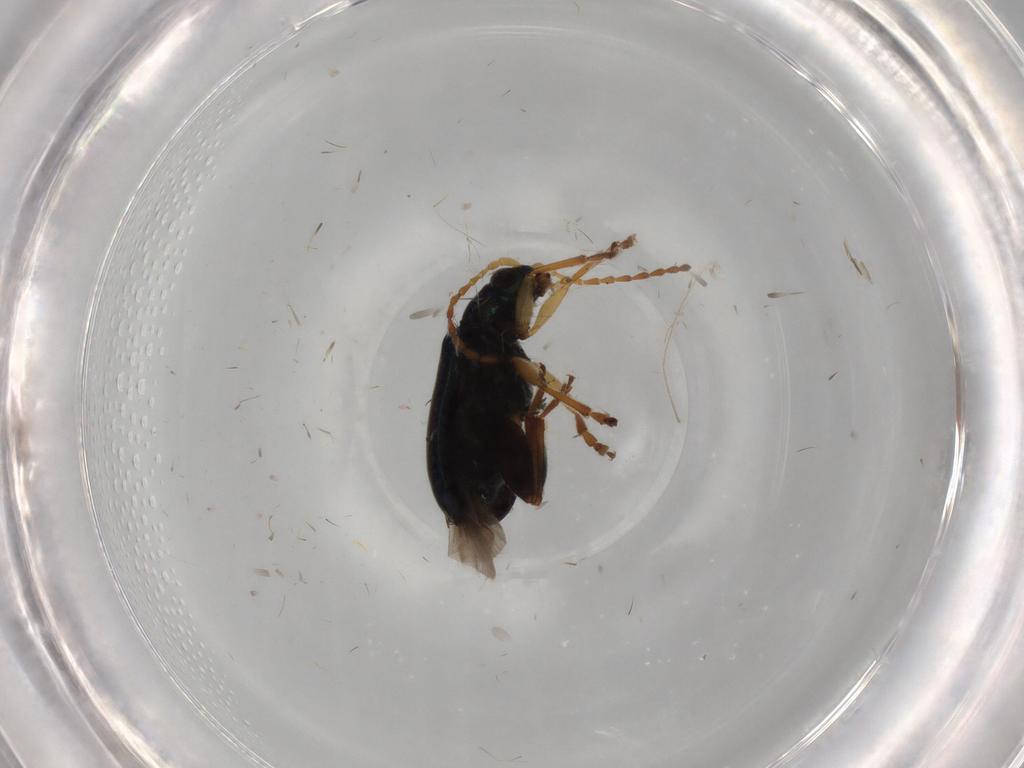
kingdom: Animalia
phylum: Arthropoda
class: Insecta
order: Coleoptera
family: Chrysomelidae
